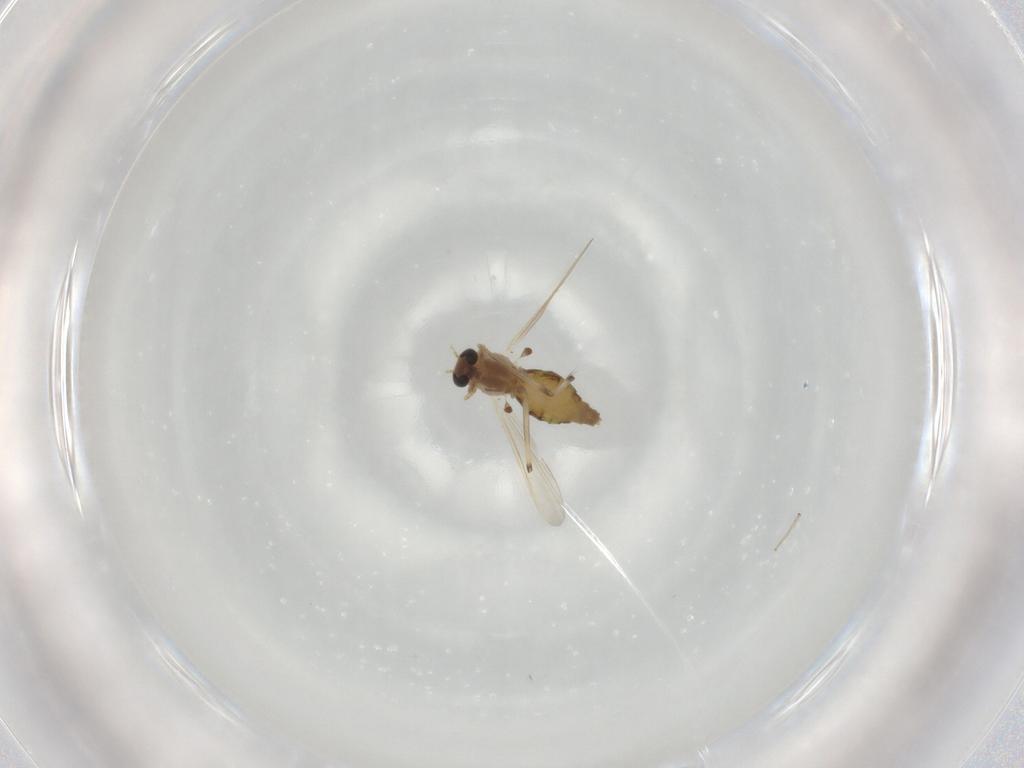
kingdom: Animalia
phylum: Arthropoda
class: Insecta
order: Diptera
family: Chironomidae
